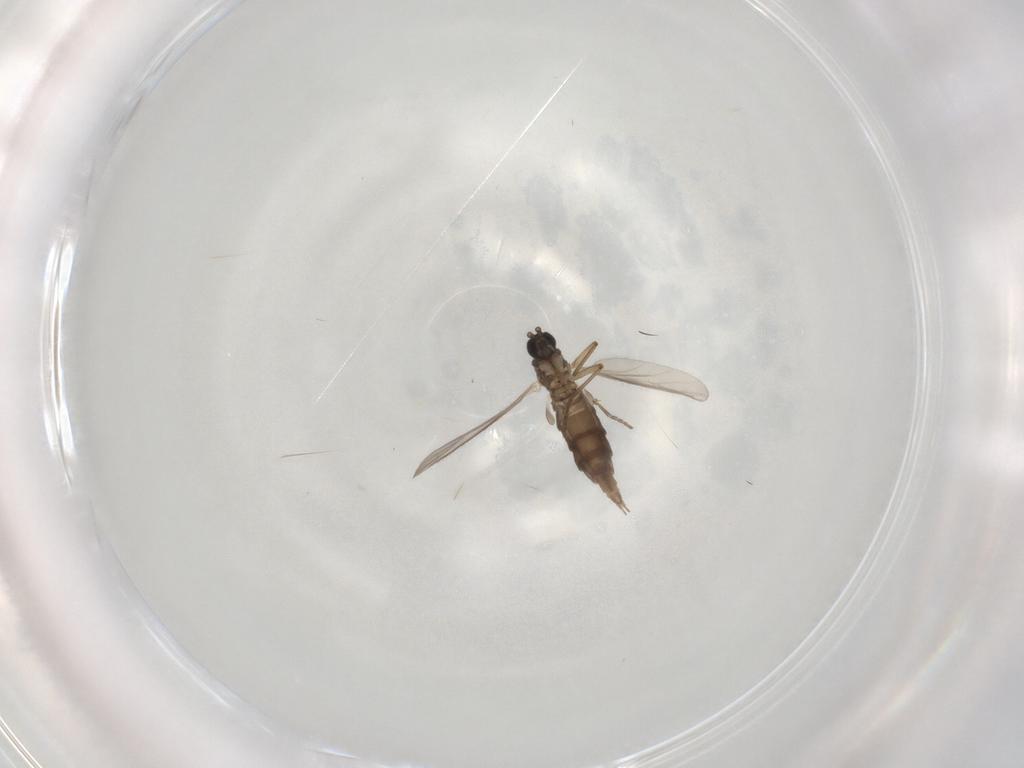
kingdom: Animalia
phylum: Arthropoda
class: Insecta
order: Diptera
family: Sciaridae
